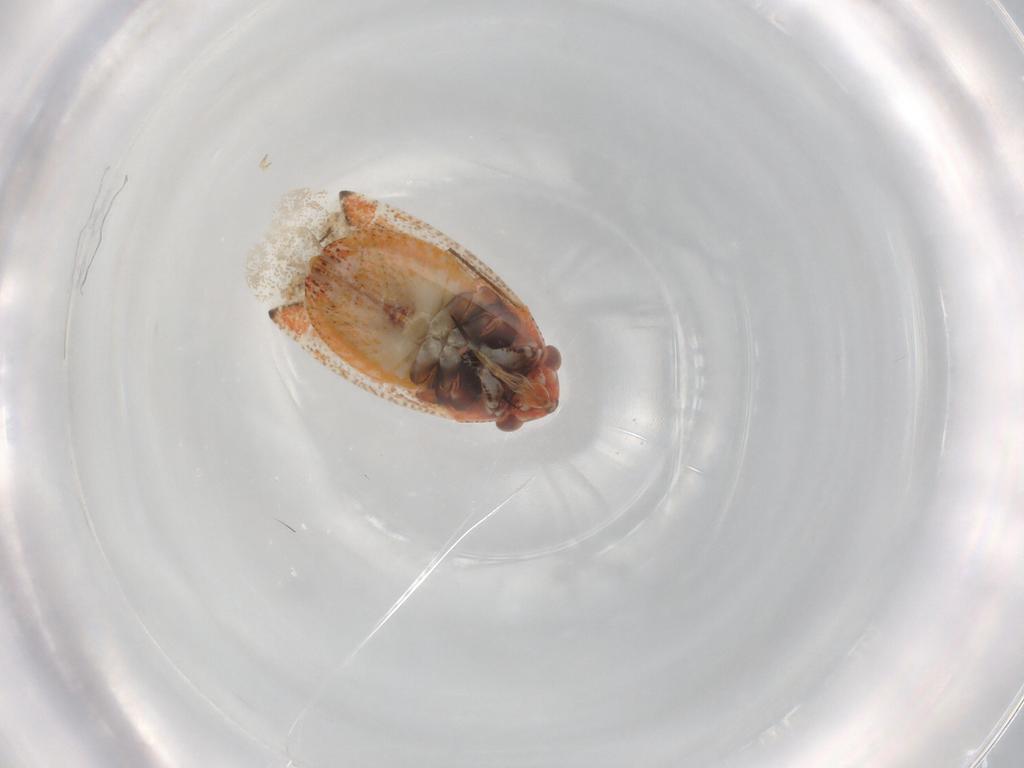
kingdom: Animalia
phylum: Arthropoda
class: Insecta
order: Hemiptera
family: Miridae
